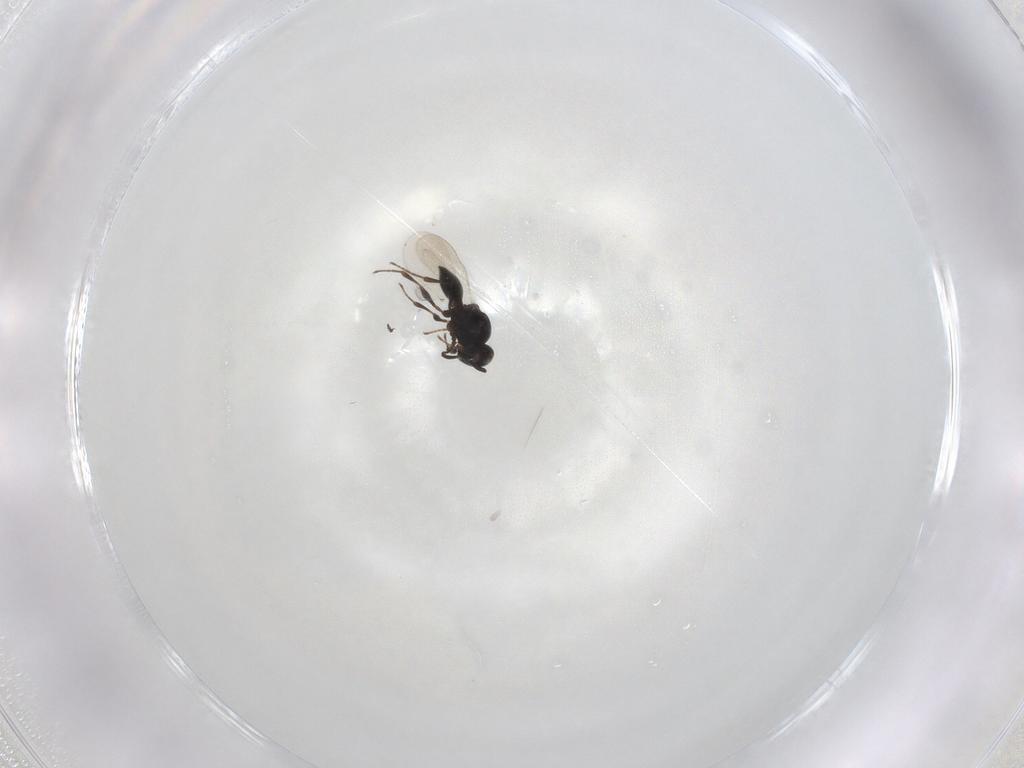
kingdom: Animalia
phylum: Arthropoda
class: Insecta
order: Hymenoptera
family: Platygastridae
